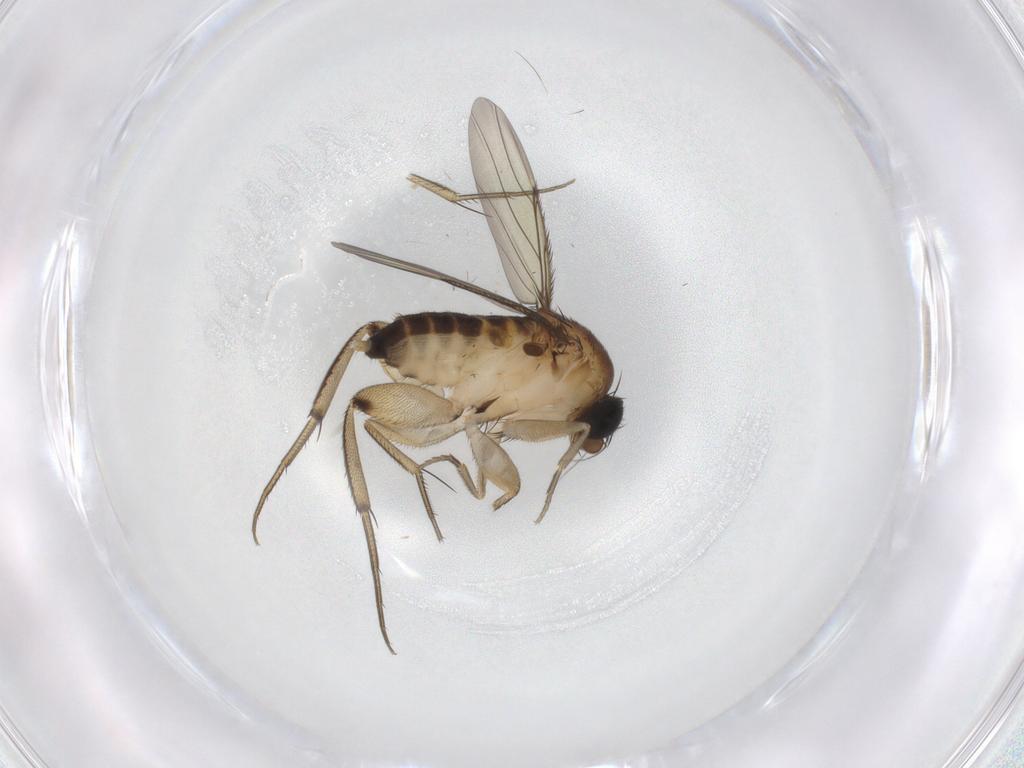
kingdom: Animalia
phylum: Arthropoda
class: Insecta
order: Diptera
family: Phoridae
